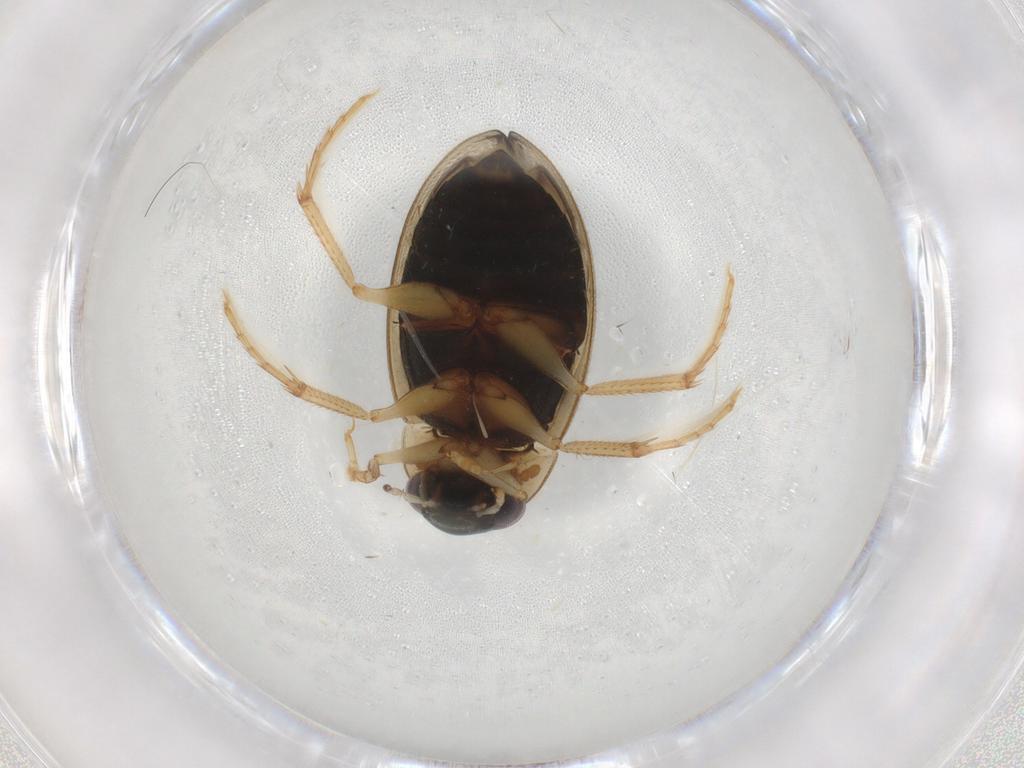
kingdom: Animalia
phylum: Arthropoda
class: Insecta
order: Coleoptera
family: Hydrophilidae
